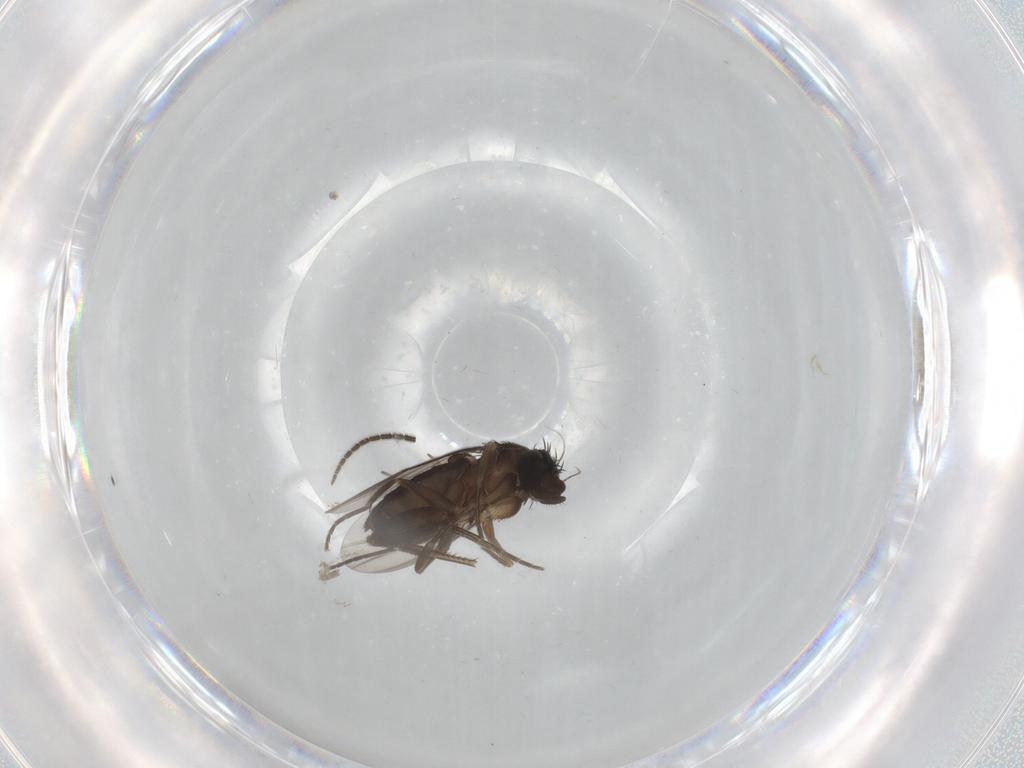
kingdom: Animalia
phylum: Arthropoda
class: Insecta
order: Diptera
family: Phoridae
